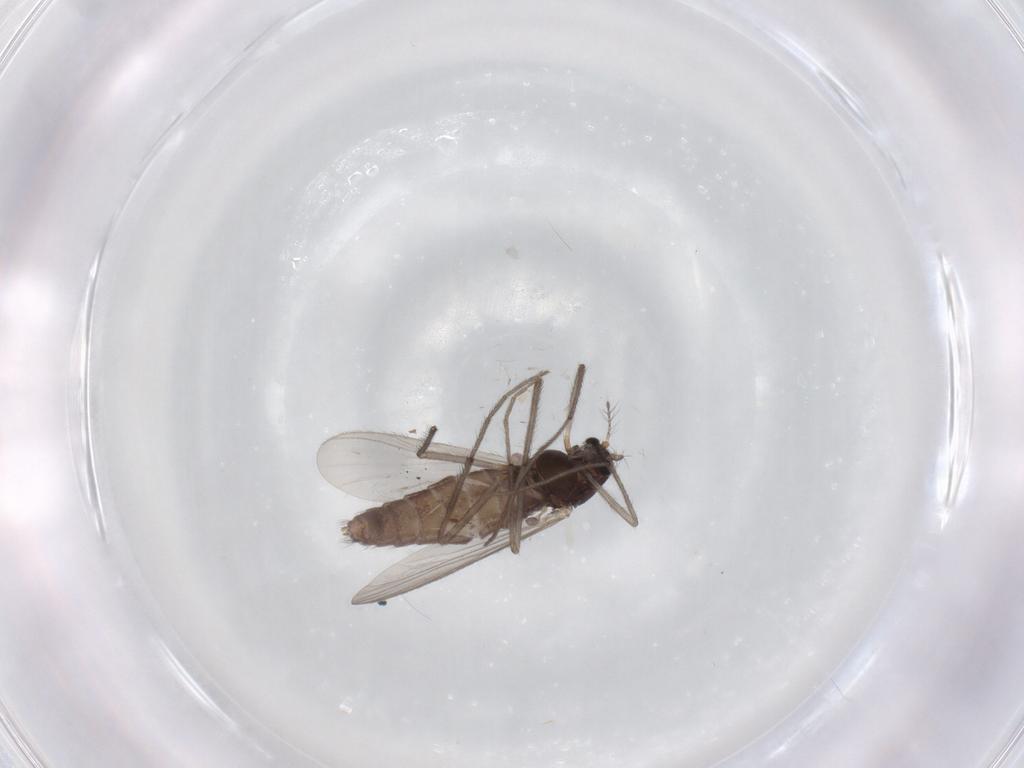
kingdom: Animalia
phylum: Arthropoda
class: Insecta
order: Diptera
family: Chironomidae
